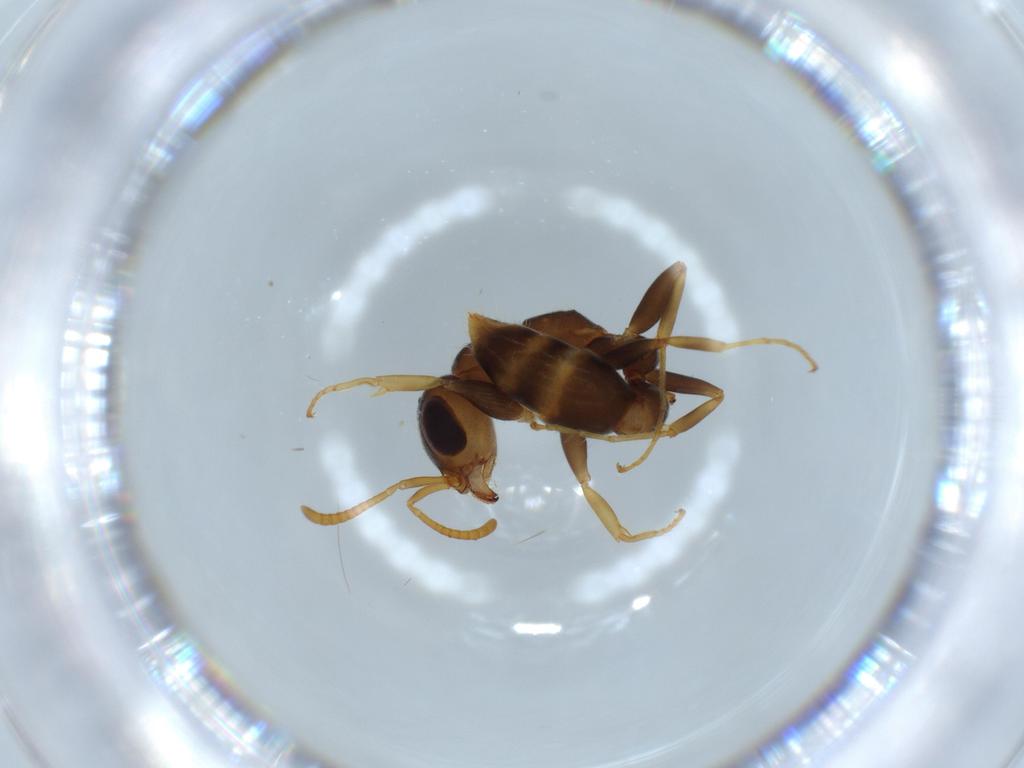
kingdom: Animalia
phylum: Arthropoda
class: Insecta
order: Hymenoptera
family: Formicidae
